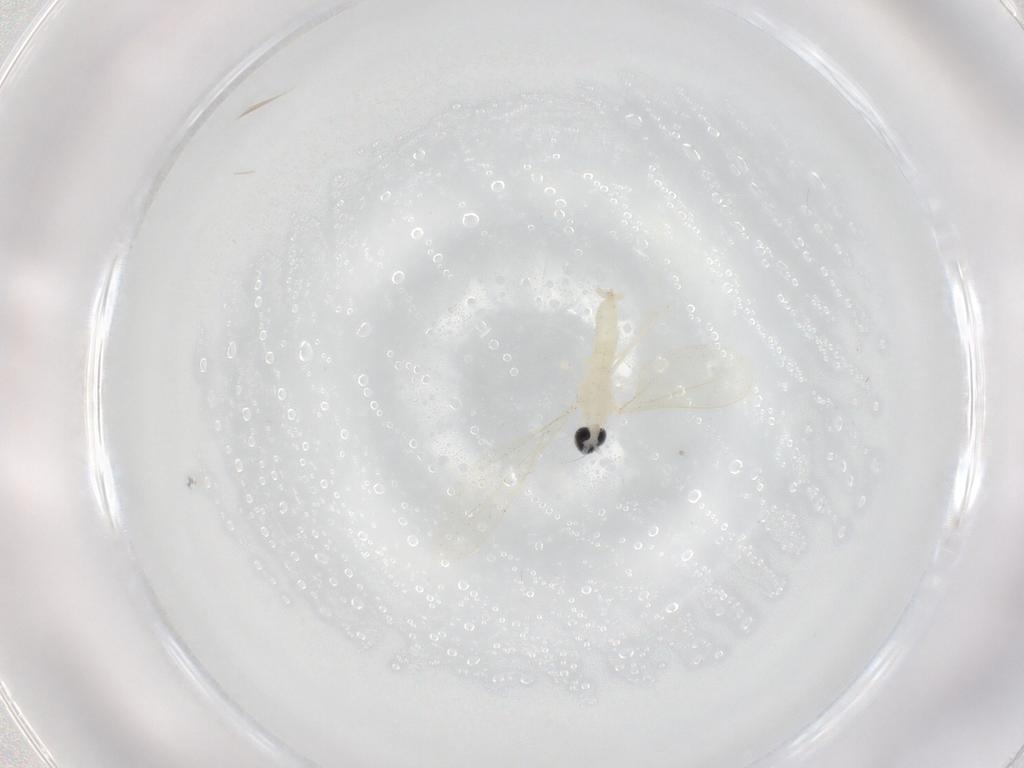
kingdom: Animalia
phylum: Arthropoda
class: Insecta
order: Diptera
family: Cecidomyiidae
